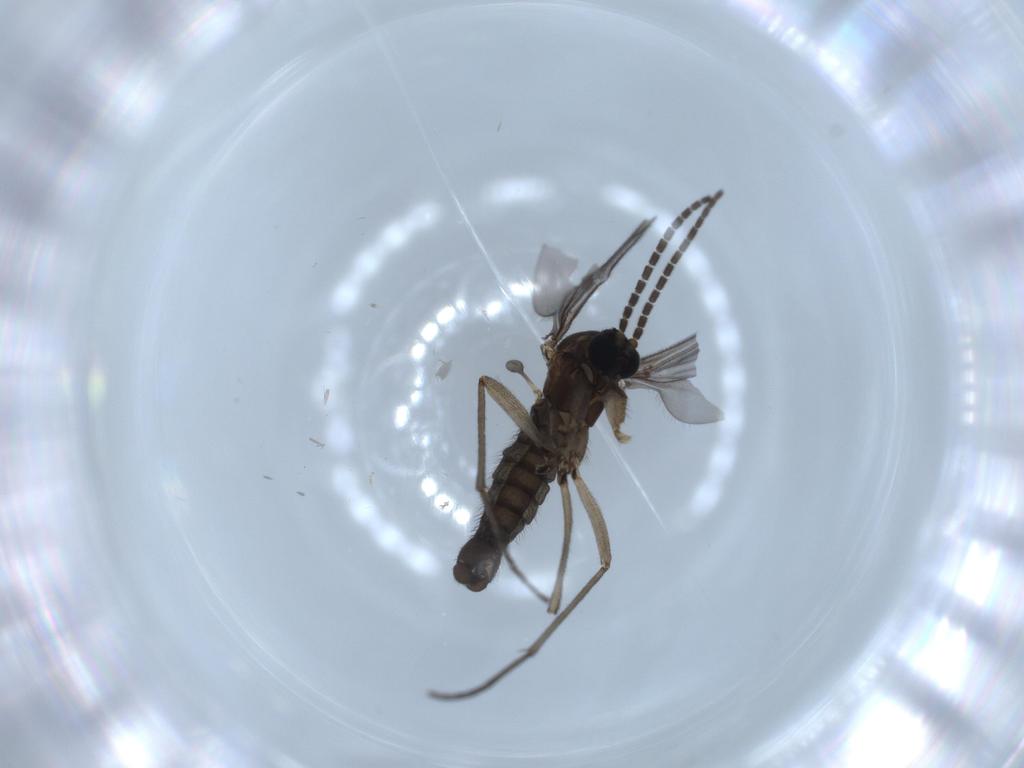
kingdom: Animalia
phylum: Arthropoda
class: Insecta
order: Diptera
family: Sciaridae
